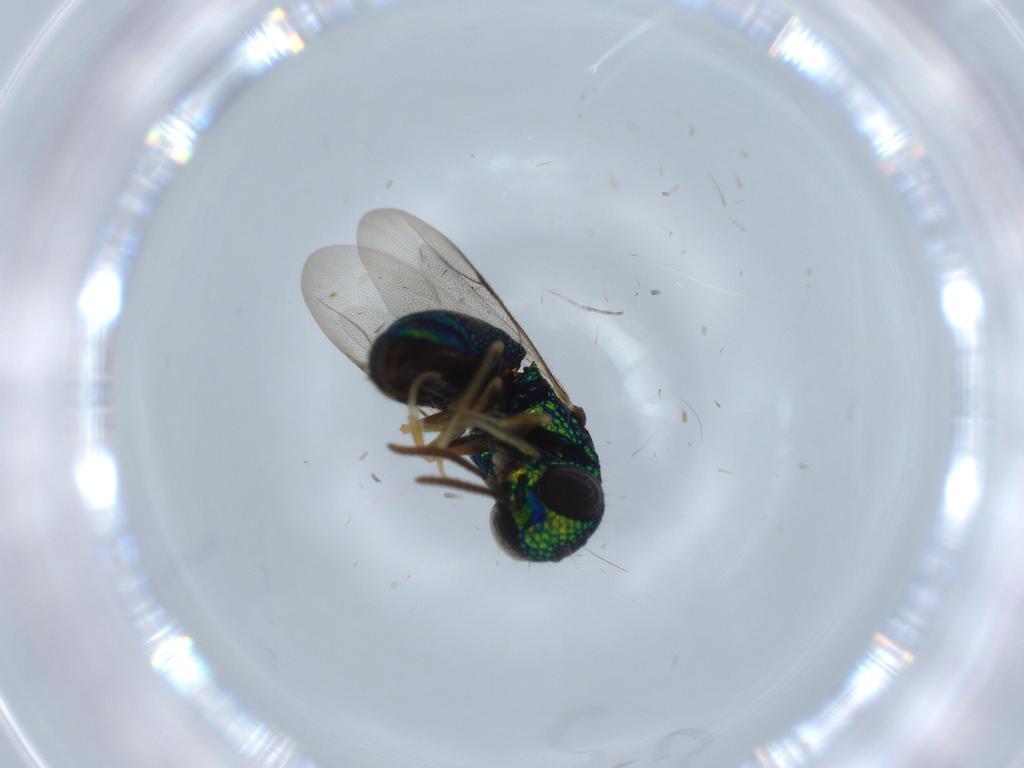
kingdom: Animalia
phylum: Arthropoda
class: Insecta
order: Hymenoptera
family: Chrysididae
